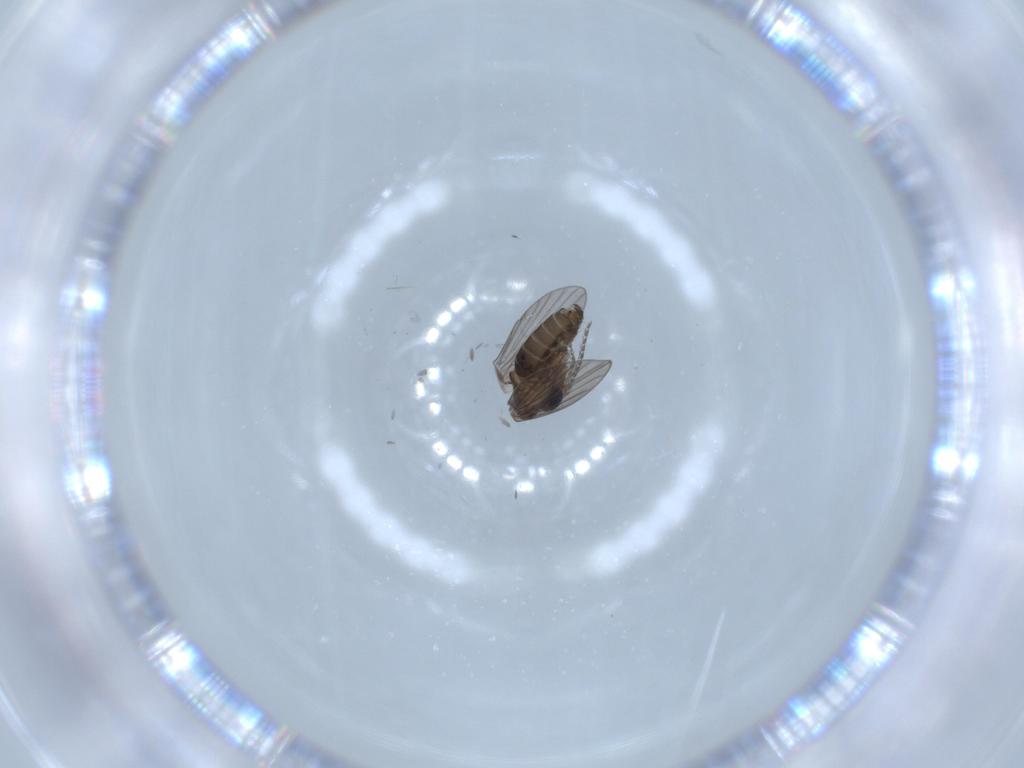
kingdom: Animalia
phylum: Arthropoda
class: Insecta
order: Diptera
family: Psychodidae
